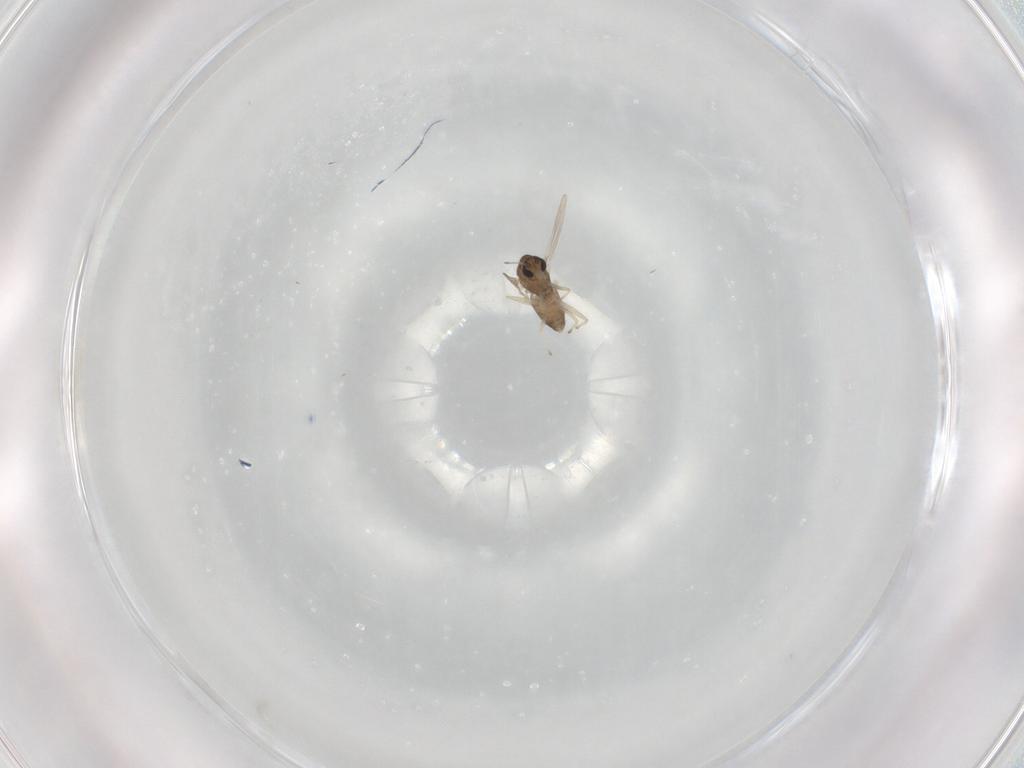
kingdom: Animalia
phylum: Arthropoda
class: Insecta
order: Diptera
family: Chironomidae
